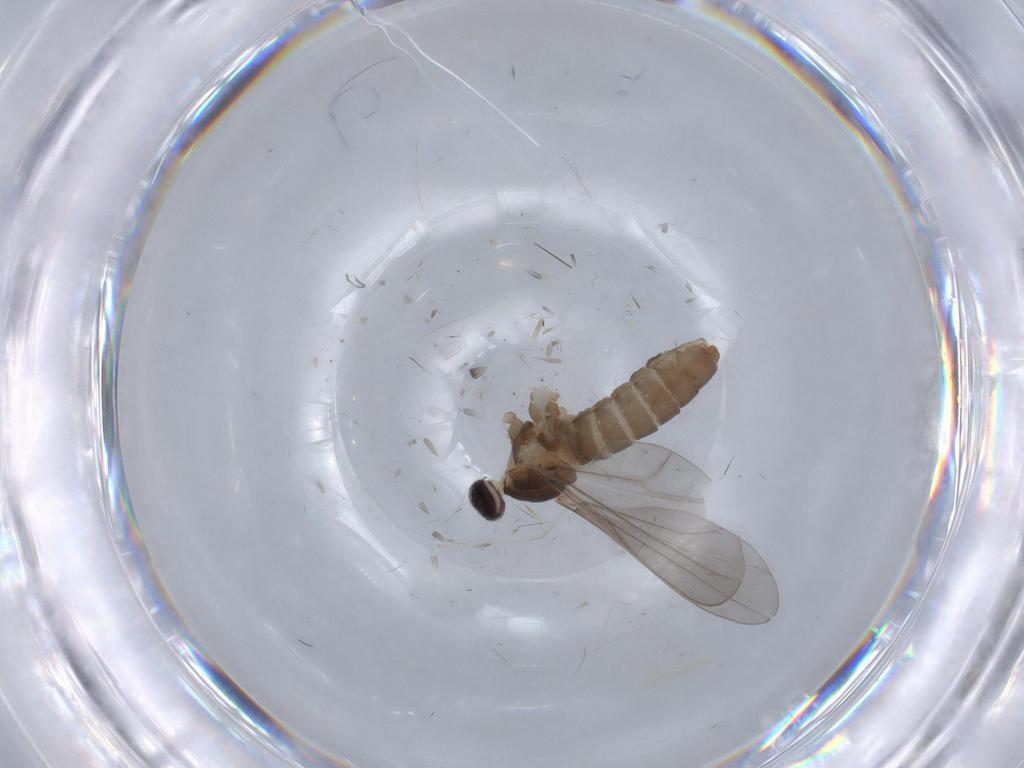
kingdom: Animalia
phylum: Arthropoda
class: Insecta
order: Diptera
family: Cecidomyiidae
